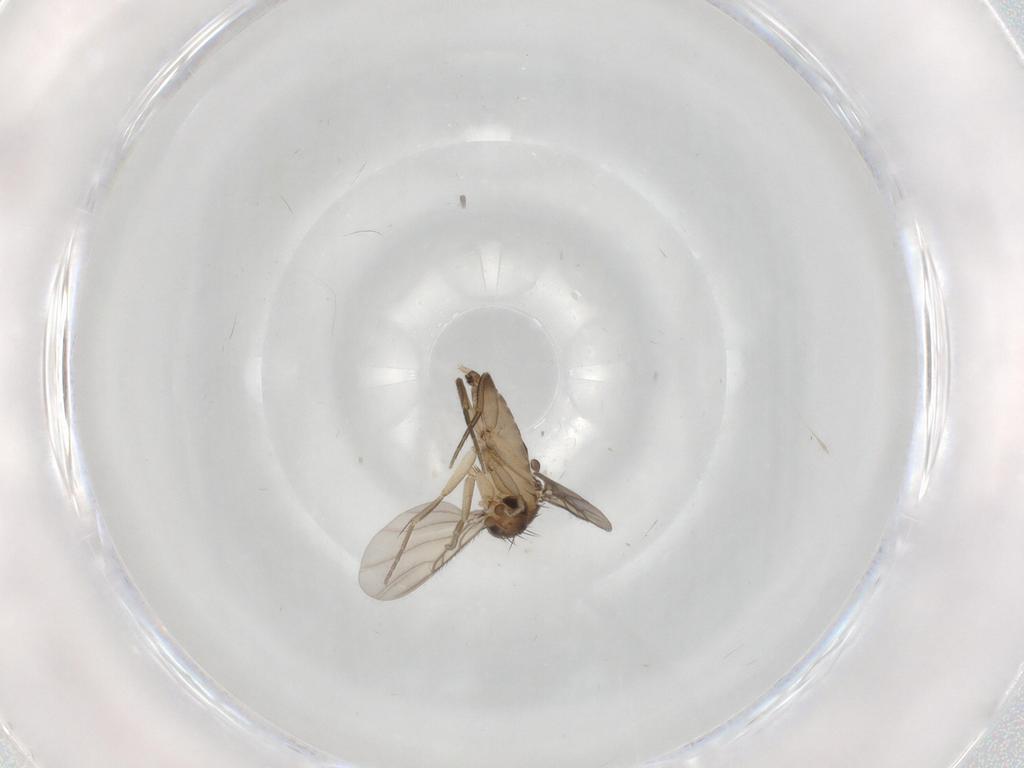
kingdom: Animalia
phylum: Arthropoda
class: Insecta
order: Diptera
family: Phoridae
